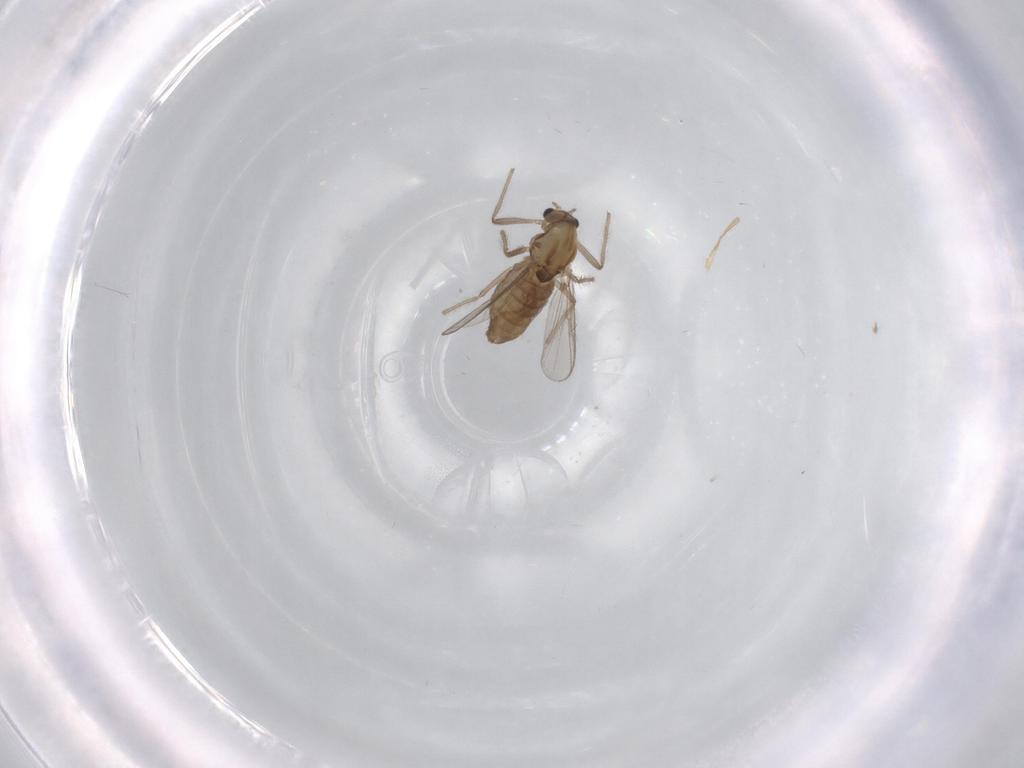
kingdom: Animalia
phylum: Arthropoda
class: Insecta
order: Diptera
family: Chironomidae
